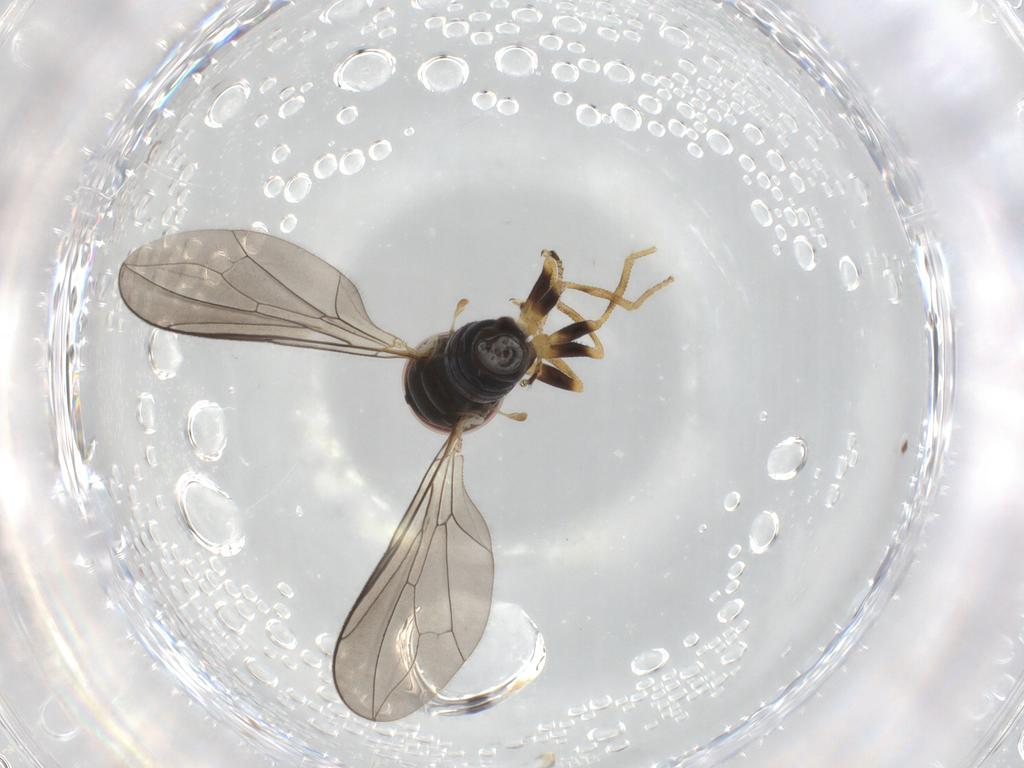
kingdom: Animalia
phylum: Arthropoda
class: Insecta
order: Diptera
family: Pipunculidae
